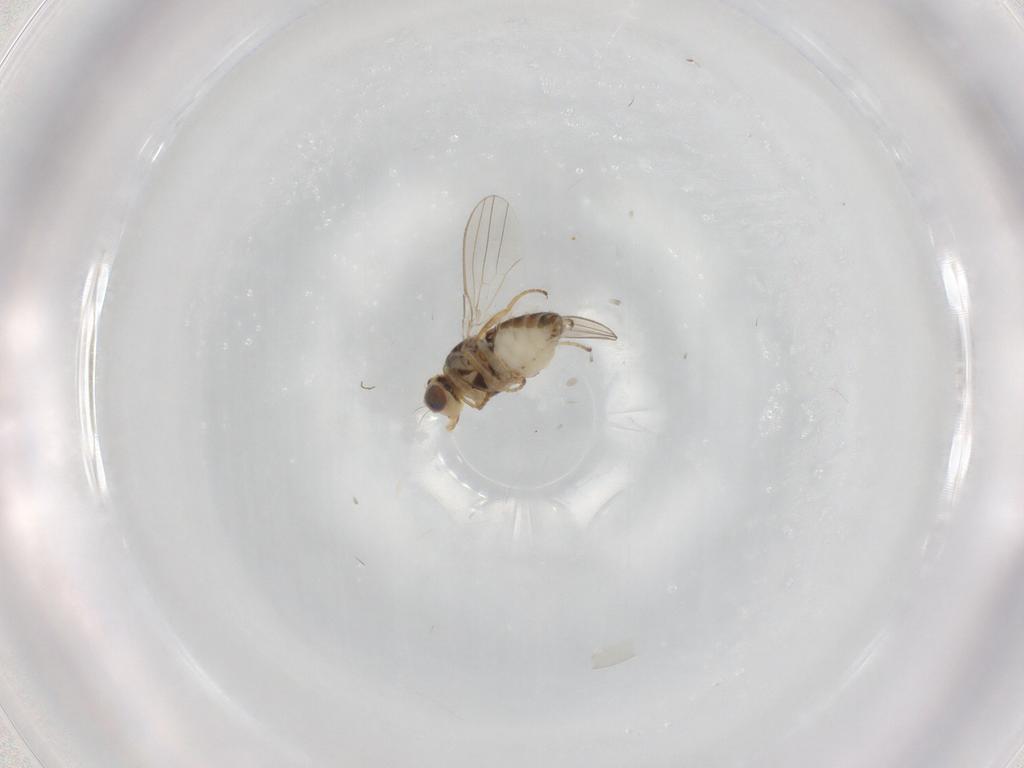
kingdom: Animalia
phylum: Arthropoda
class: Insecta
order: Diptera
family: Chyromyidae
